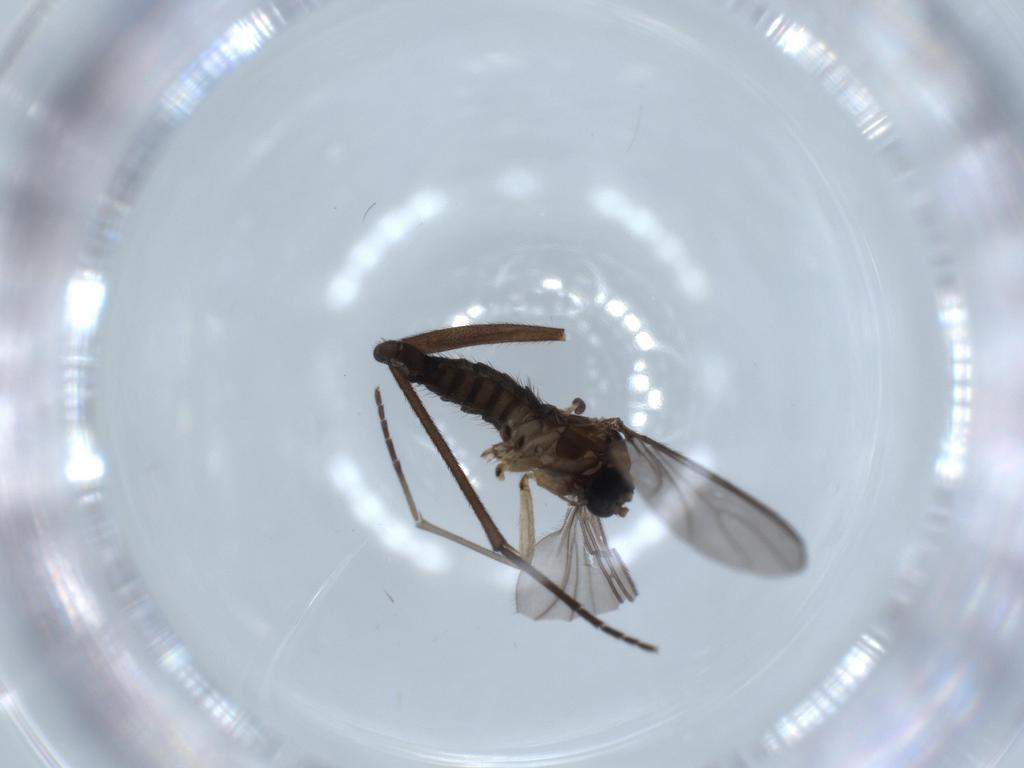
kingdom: Animalia
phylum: Arthropoda
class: Insecta
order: Diptera
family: Sciaridae
